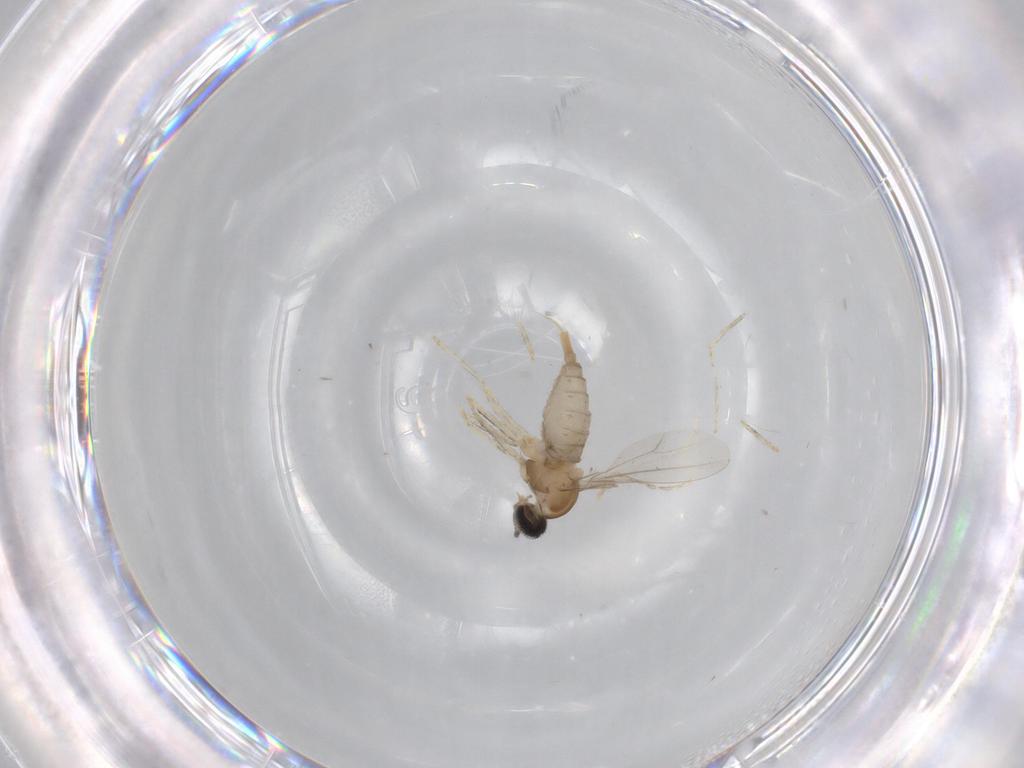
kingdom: Animalia
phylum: Arthropoda
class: Insecta
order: Diptera
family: Cecidomyiidae
